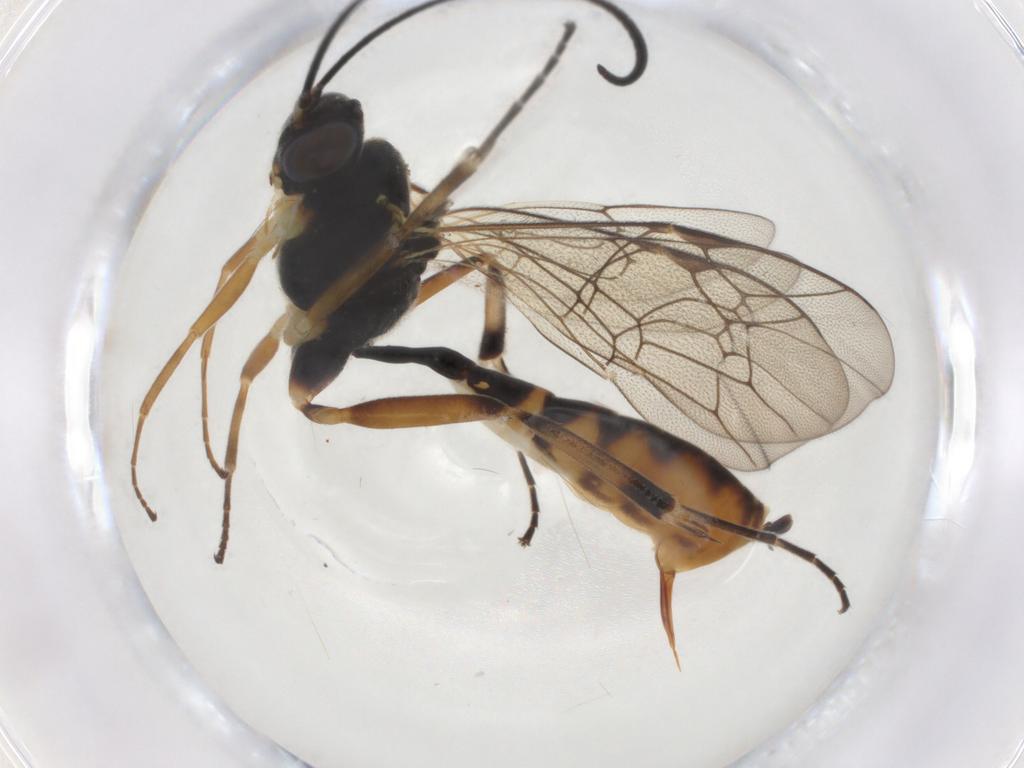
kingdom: Animalia
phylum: Arthropoda
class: Insecta
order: Hymenoptera
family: Ichneumonidae
